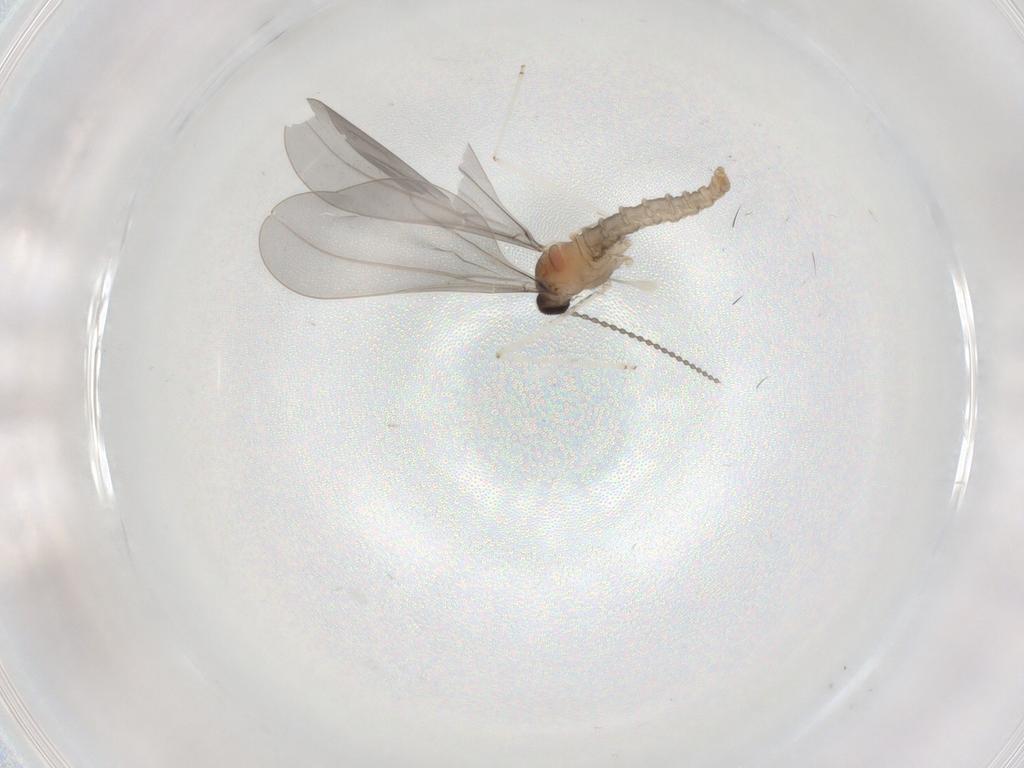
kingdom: Animalia
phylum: Arthropoda
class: Insecta
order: Diptera
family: Cecidomyiidae
